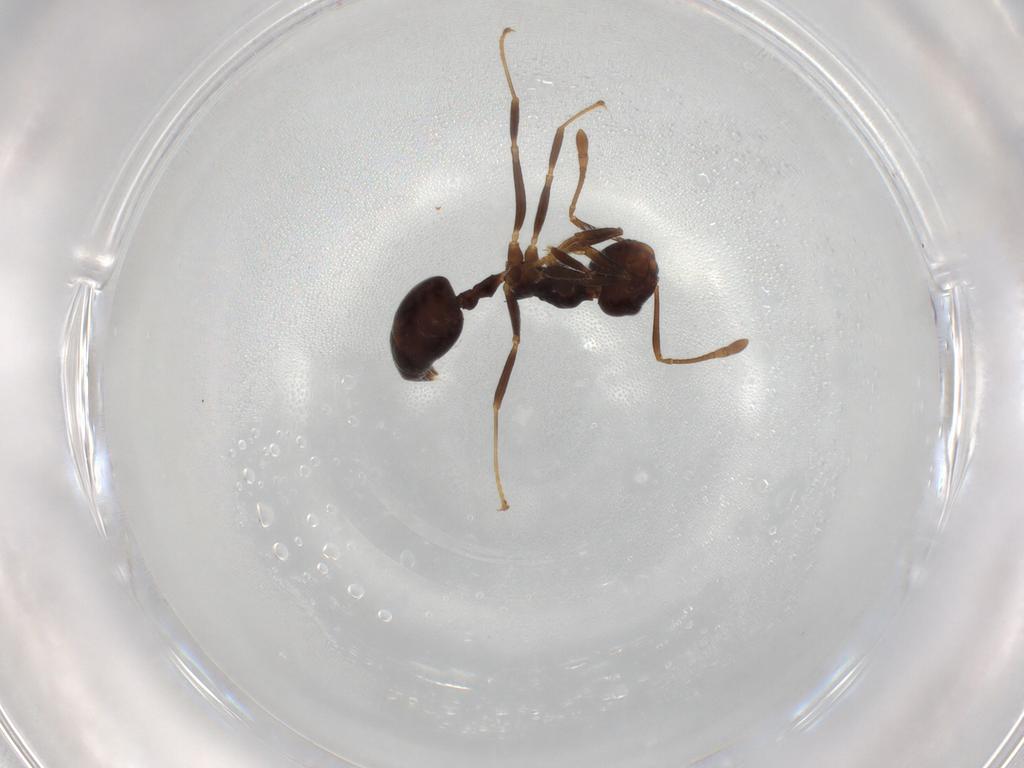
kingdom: Animalia
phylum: Arthropoda
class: Insecta
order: Hymenoptera
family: Formicidae
